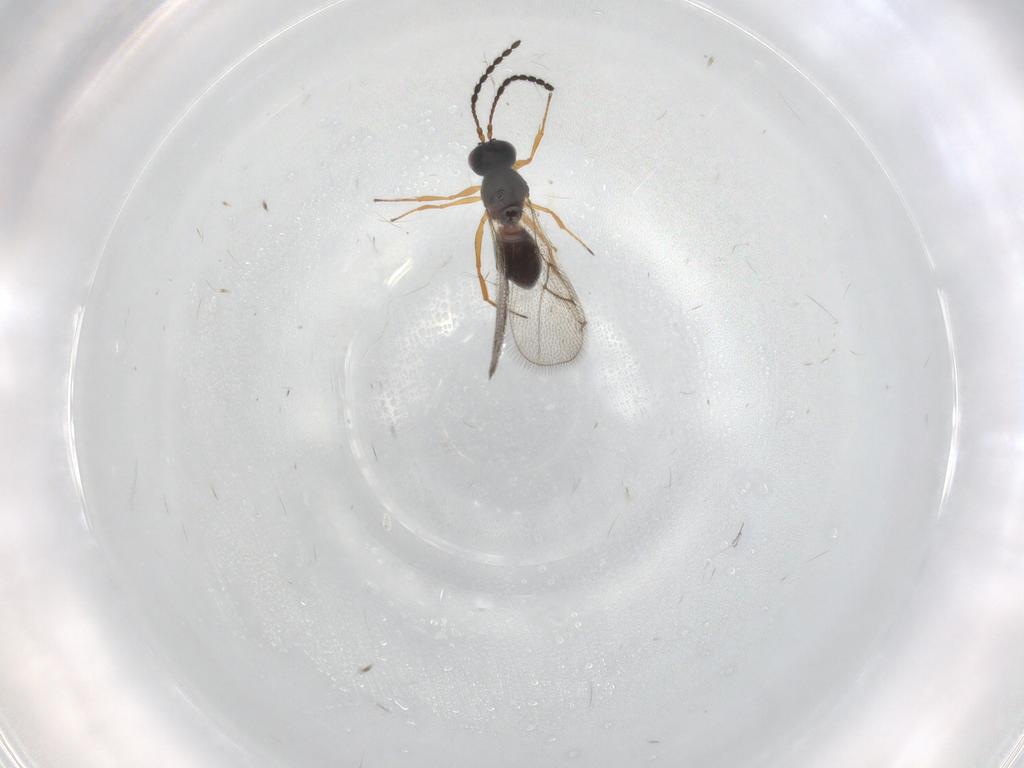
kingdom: Animalia
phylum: Arthropoda
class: Insecta
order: Hymenoptera
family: Figitidae
